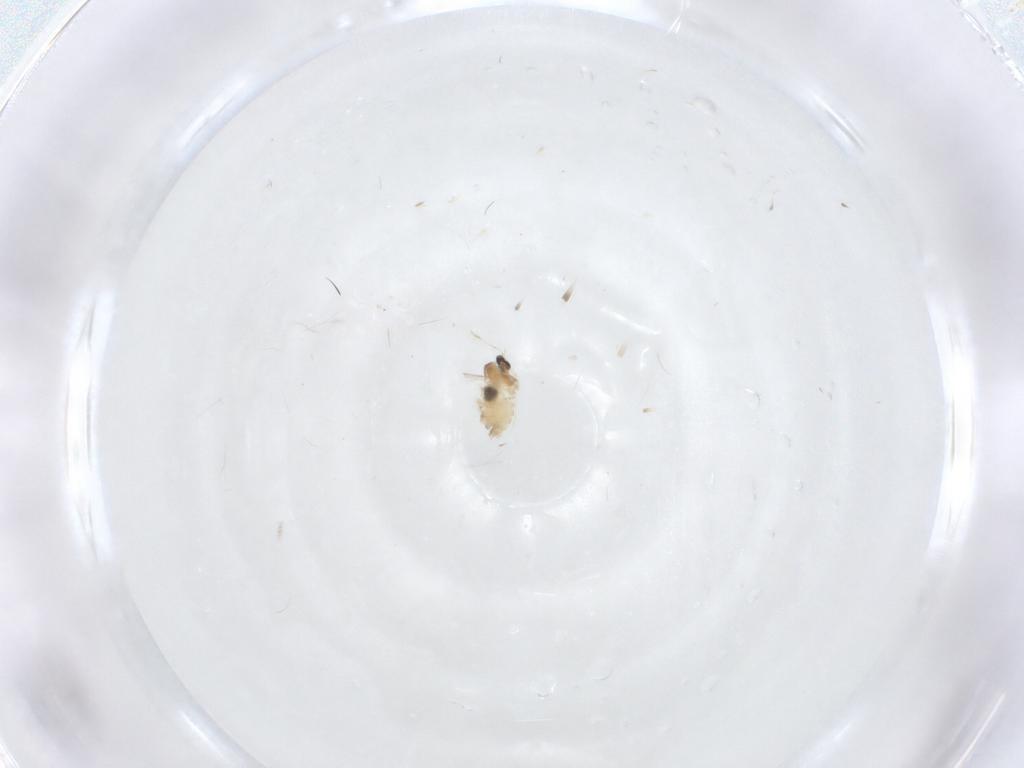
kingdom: Animalia
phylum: Arthropoda
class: Insecta
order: Diptera
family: Cecidomyiidae
